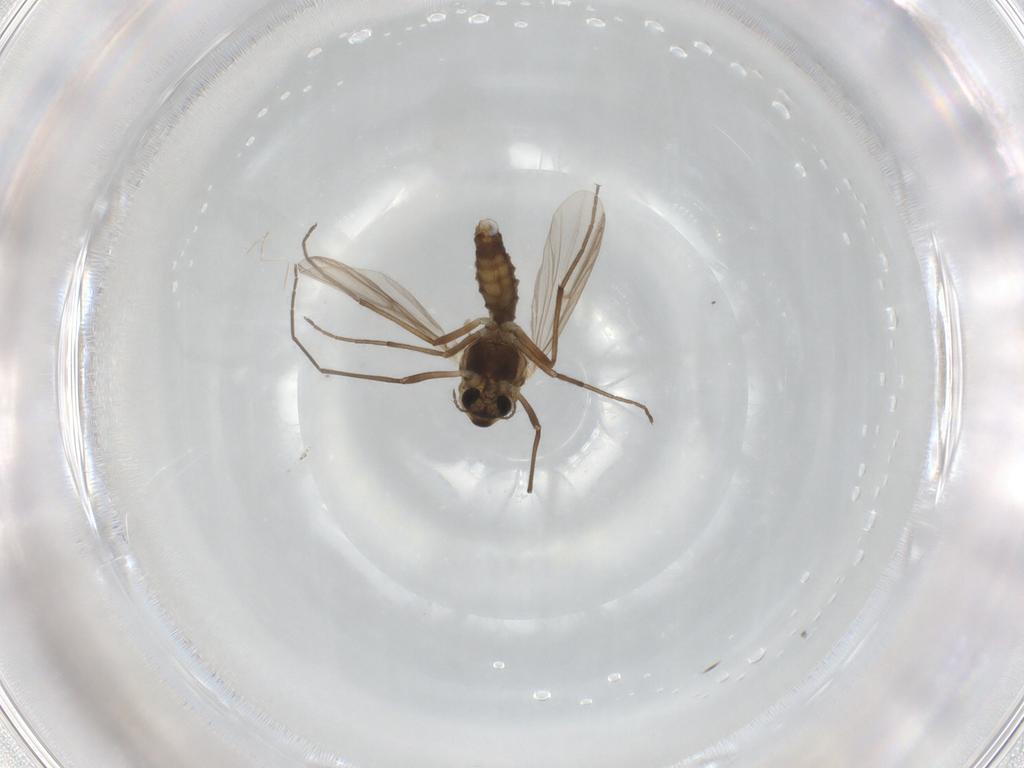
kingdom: Animalia
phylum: Arthropoda
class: Insecta
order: Diptera
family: Chironomidae
